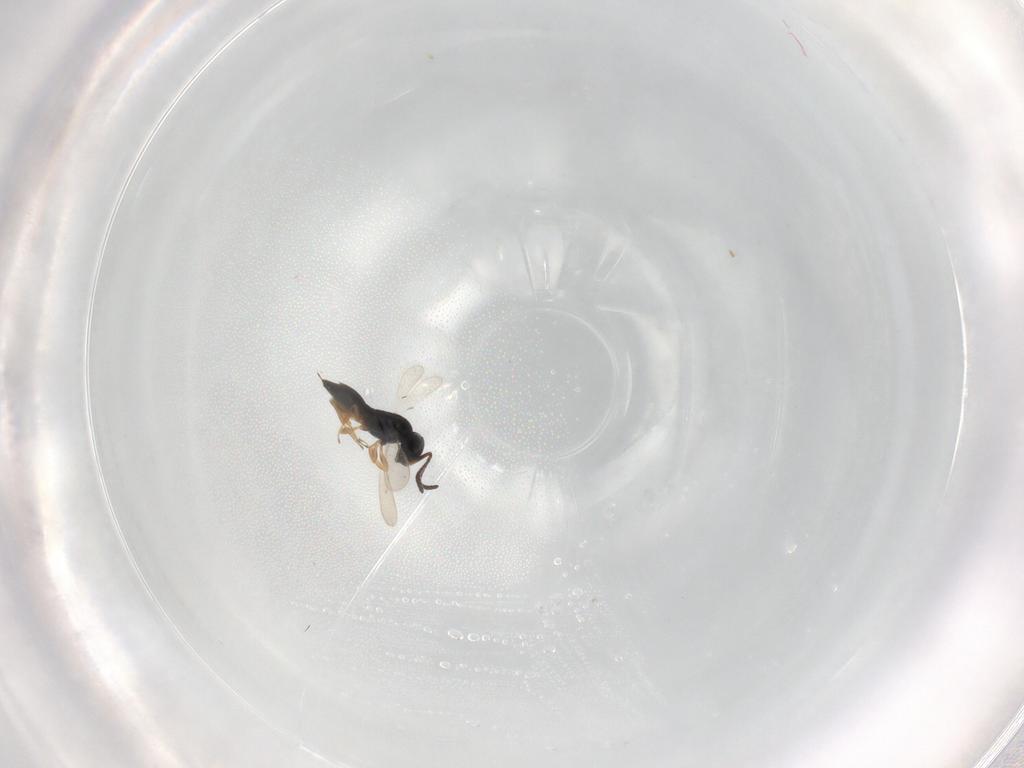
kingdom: Animalia
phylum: Arthropoda
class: Insecta
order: Hymenoptera
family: Scelionidae
